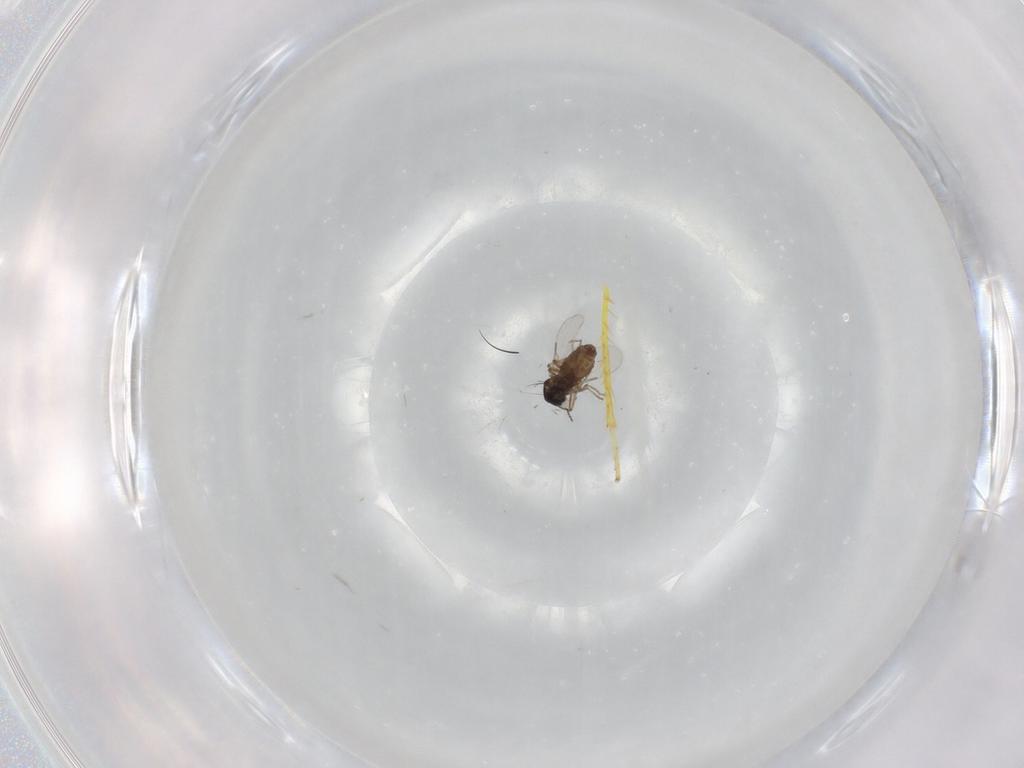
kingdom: Animalia
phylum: Arthropoda
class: Insecta
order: Diptera
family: Ceratopogonidae
